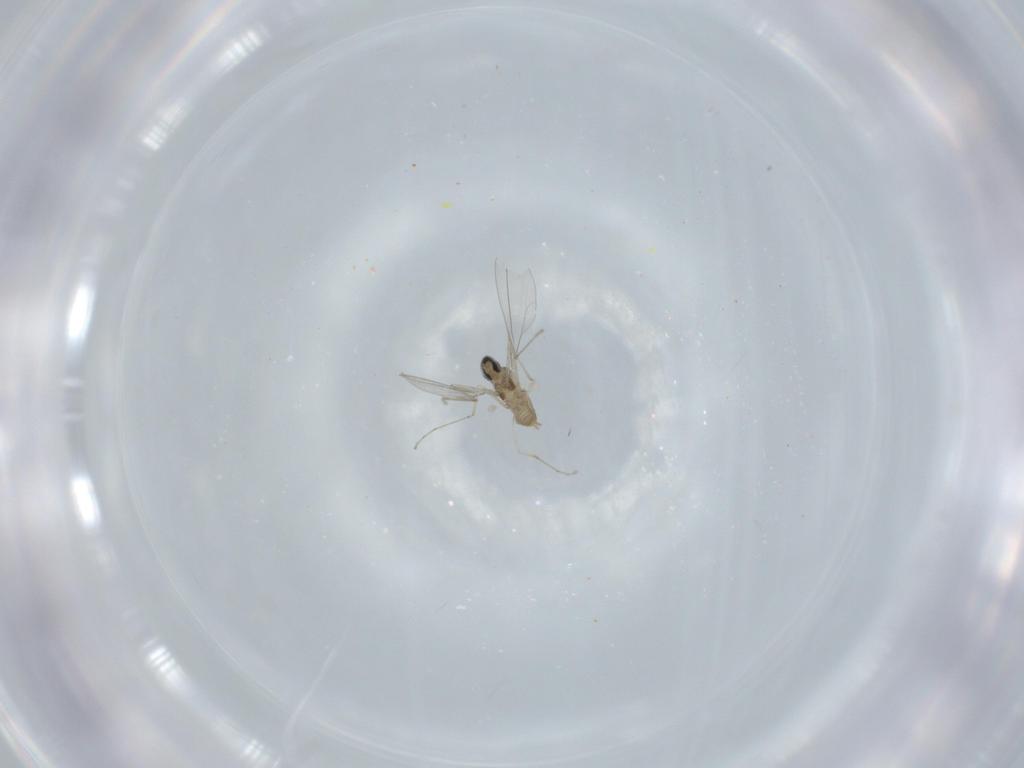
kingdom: Animalia
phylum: Arthropoda
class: Insecta
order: Diptera
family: Cecidomyiidae
